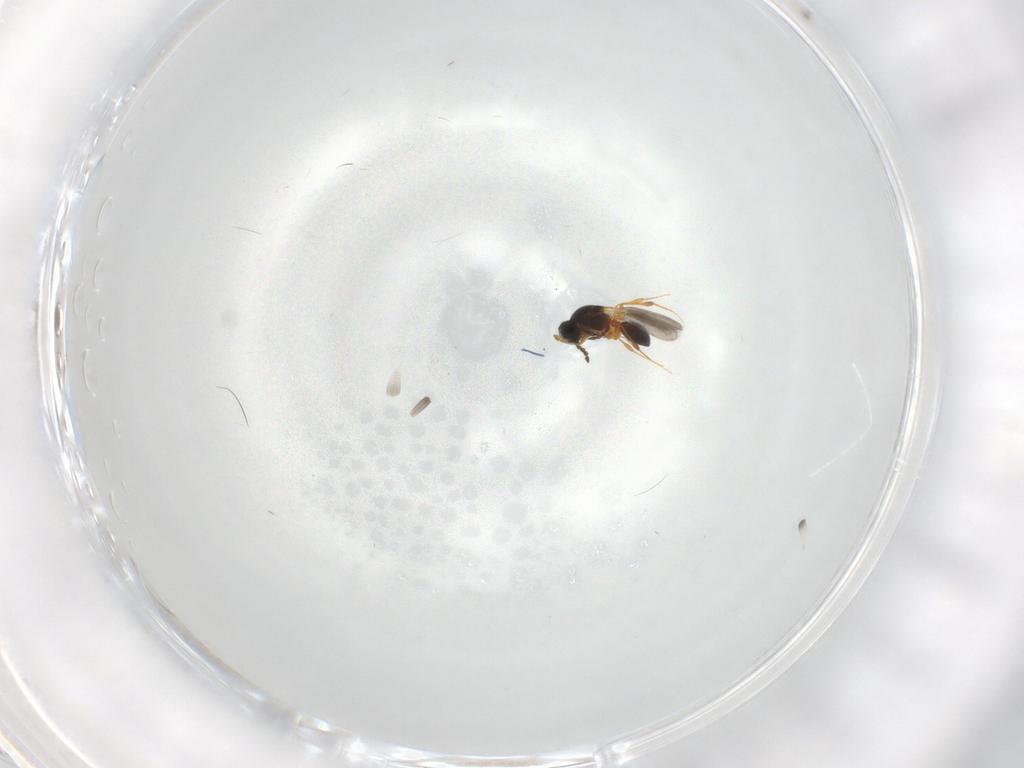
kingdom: Animalia
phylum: Arthropoda
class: Insecta
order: Hymenoptera
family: Platygastridae
